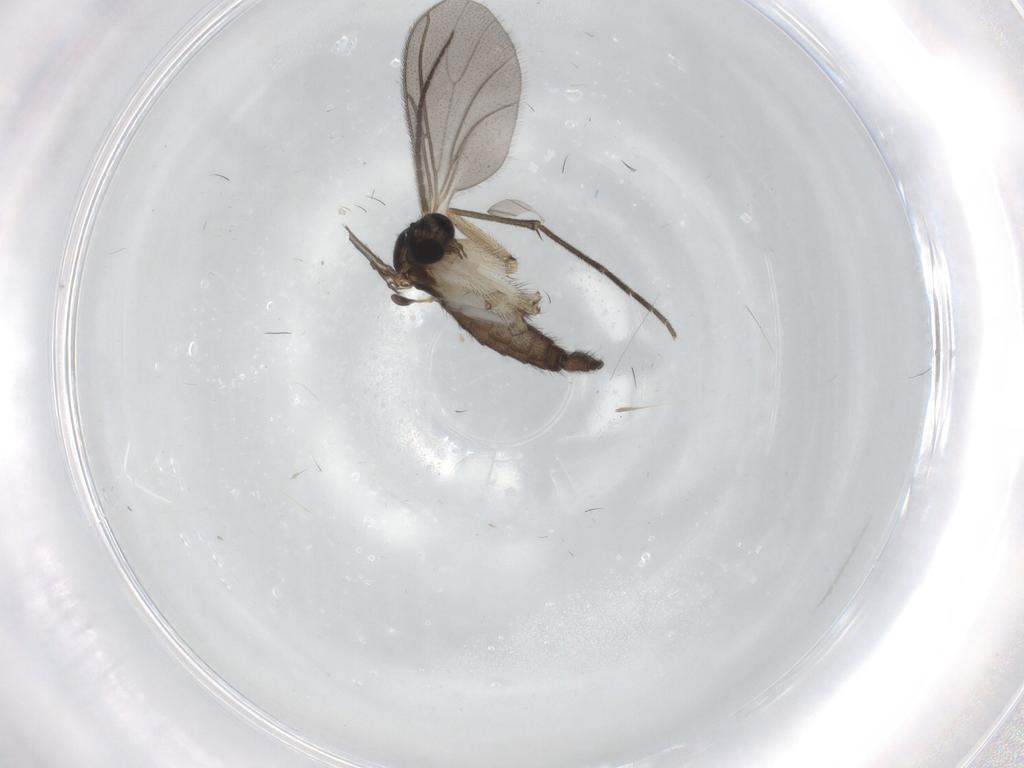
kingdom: Animalia
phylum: Arthropoda
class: Insecta
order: Diptera
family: Sciaridae
